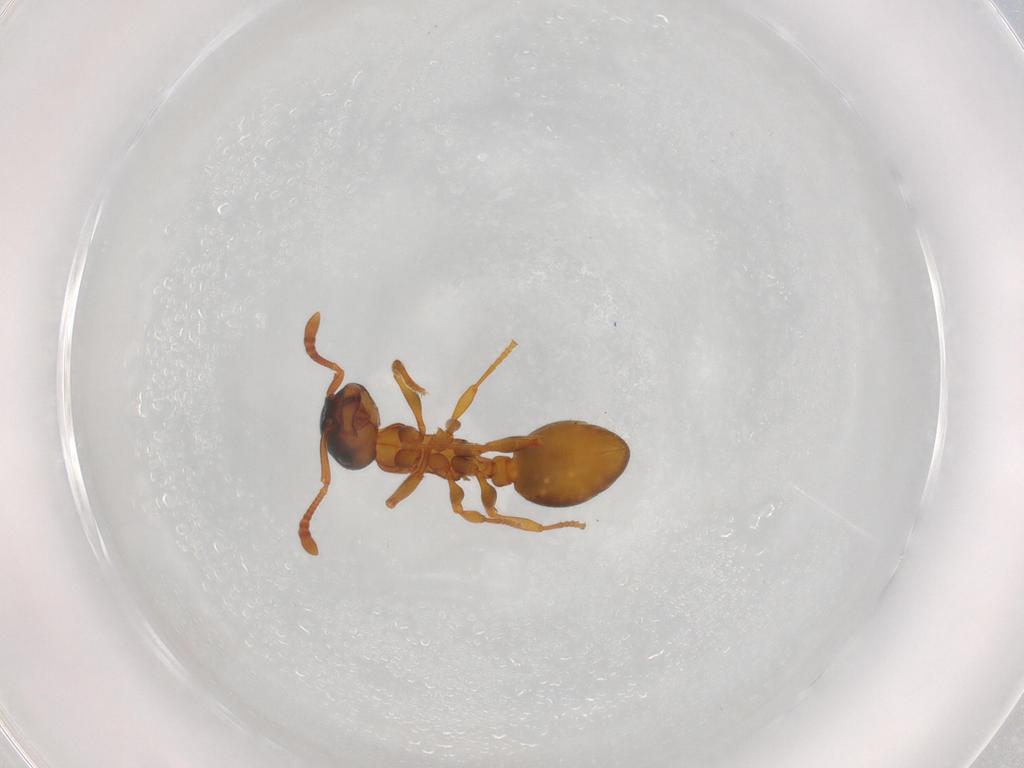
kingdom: Animalia
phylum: Arthropoda
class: Insecta
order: Hymenoptera
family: Formicidae
